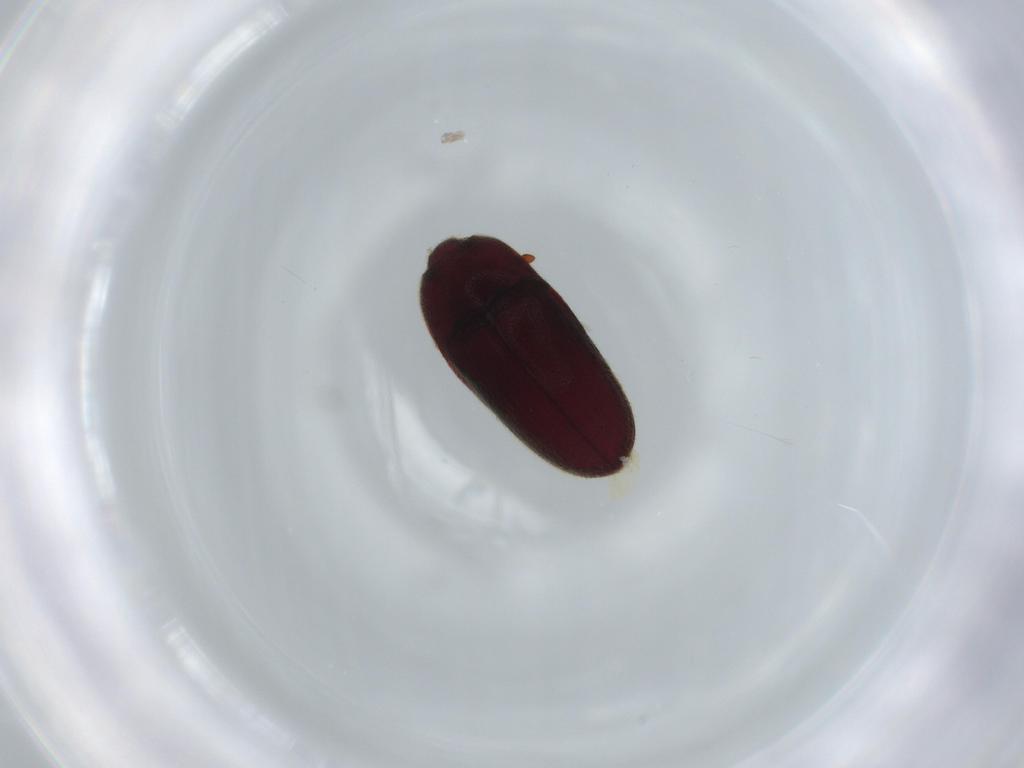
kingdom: Animalia
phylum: Arthropoda
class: Insecta
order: Coleoptera
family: Throscidae
